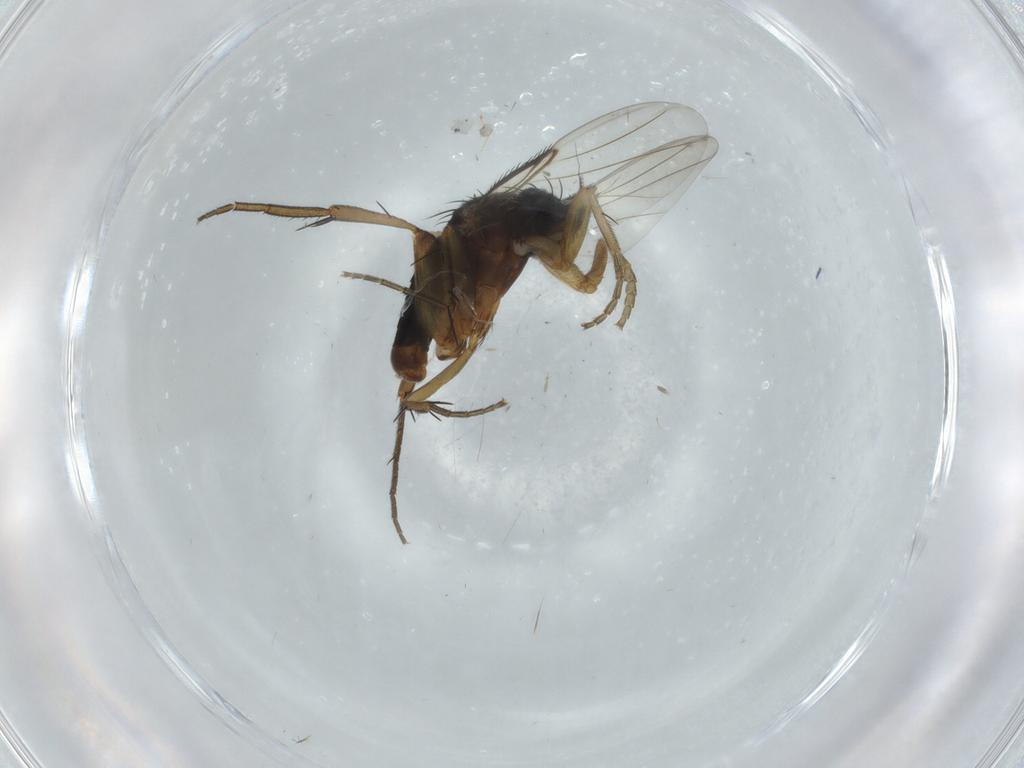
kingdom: Animalia
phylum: Arthropoda
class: Insecta
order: Diptera
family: Phoridae
